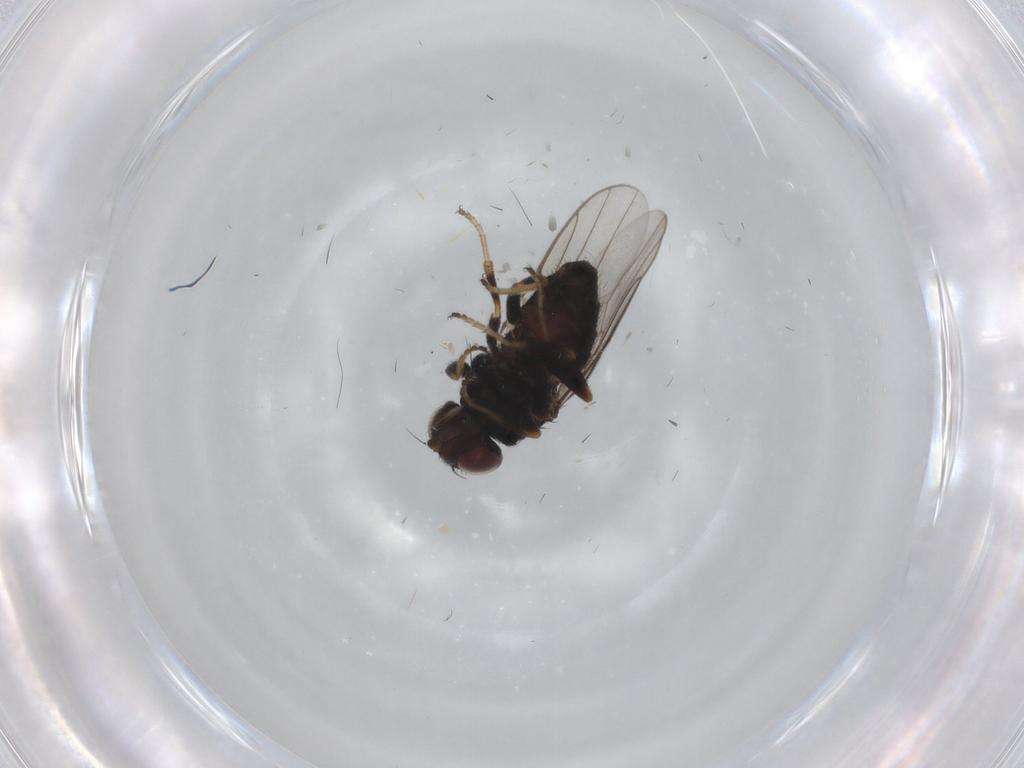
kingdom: Animalia
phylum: Arthropoda
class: Insecta
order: Diptera
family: Chloropidae
